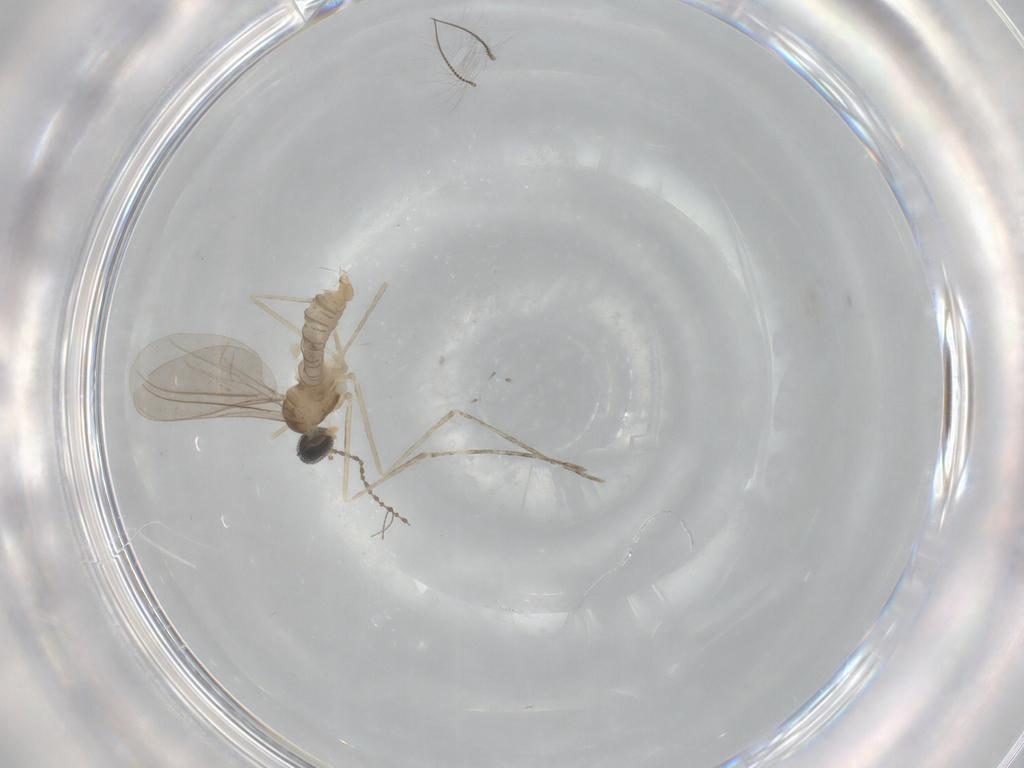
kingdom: Animalia
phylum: Arthropoda
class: Insecta
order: Diptera
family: Cecidomyiidae
